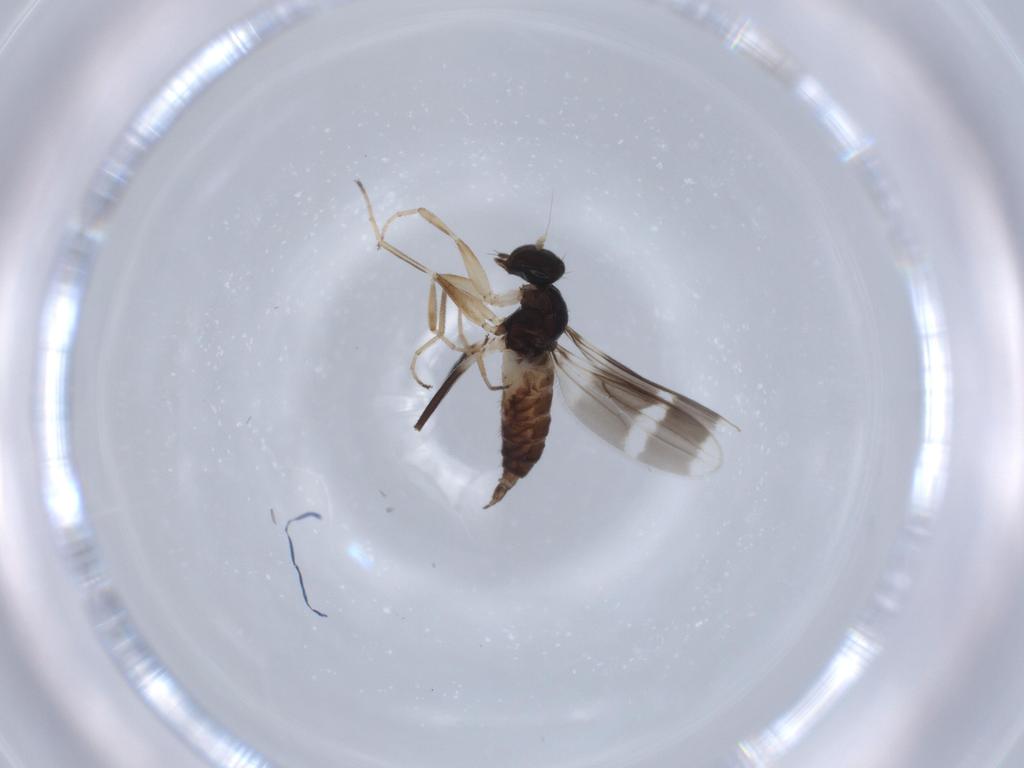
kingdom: Animalia
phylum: Arthropoda
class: Insecta
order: Diptera
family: Hybotidae
